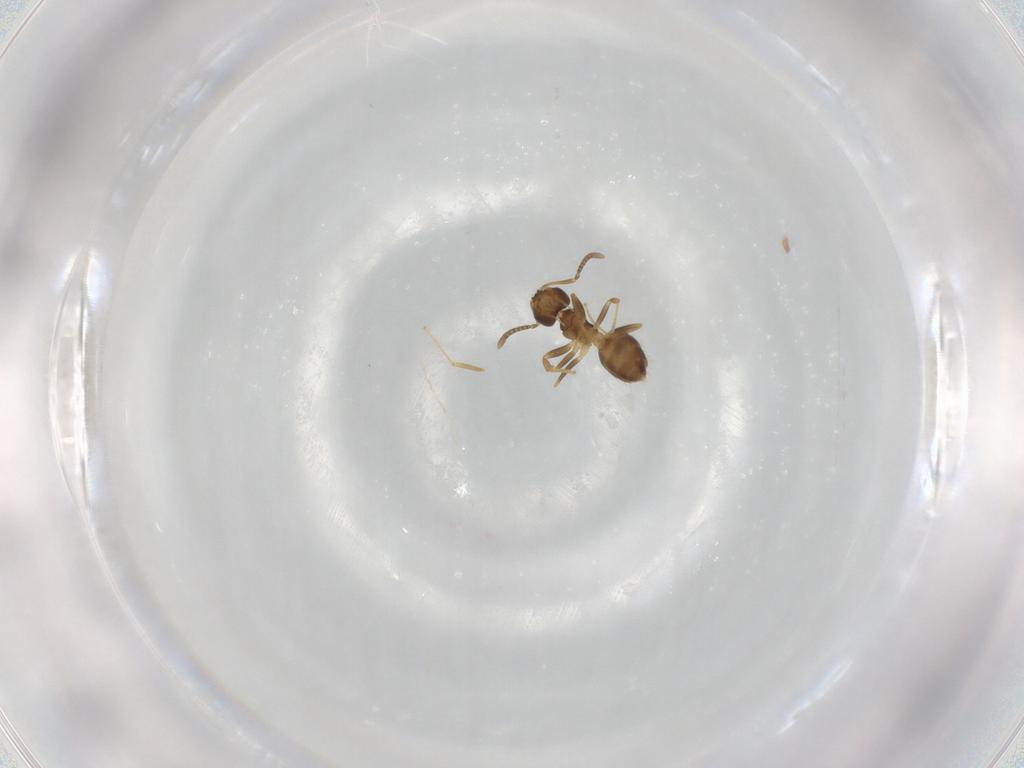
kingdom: Animalia
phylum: Arthropoda
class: Insecta
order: Hymenoptera
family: Formicidae
